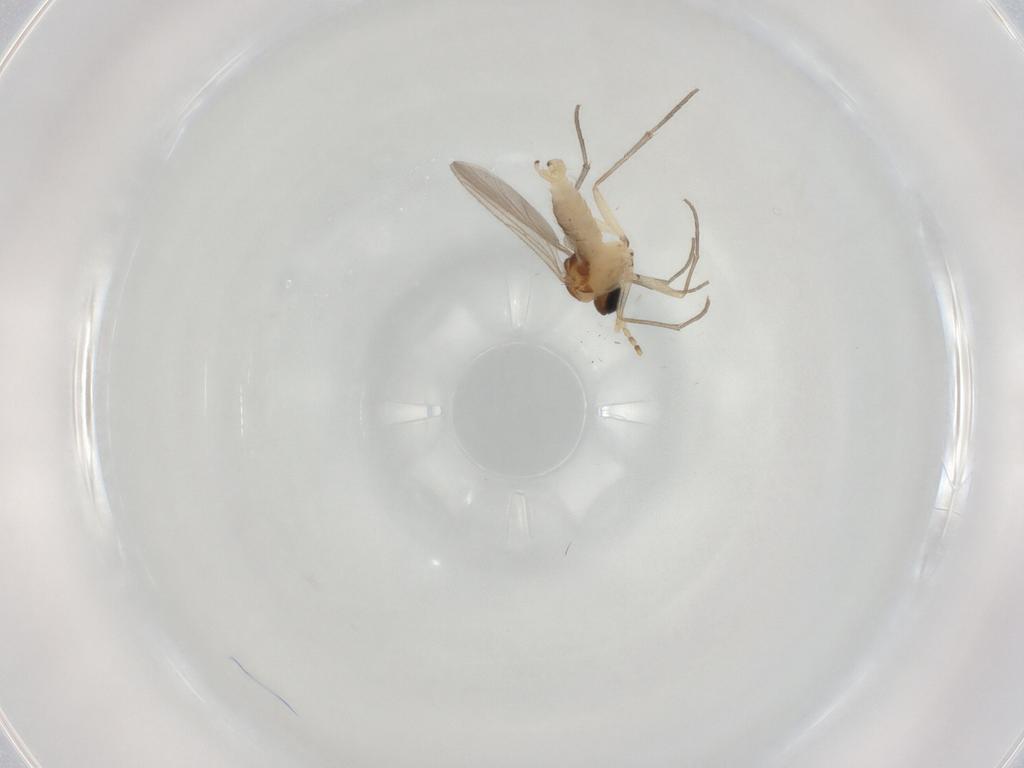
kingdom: Animalia
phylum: Arthropoda
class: Insecta
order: Diptera
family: Sciaridae
